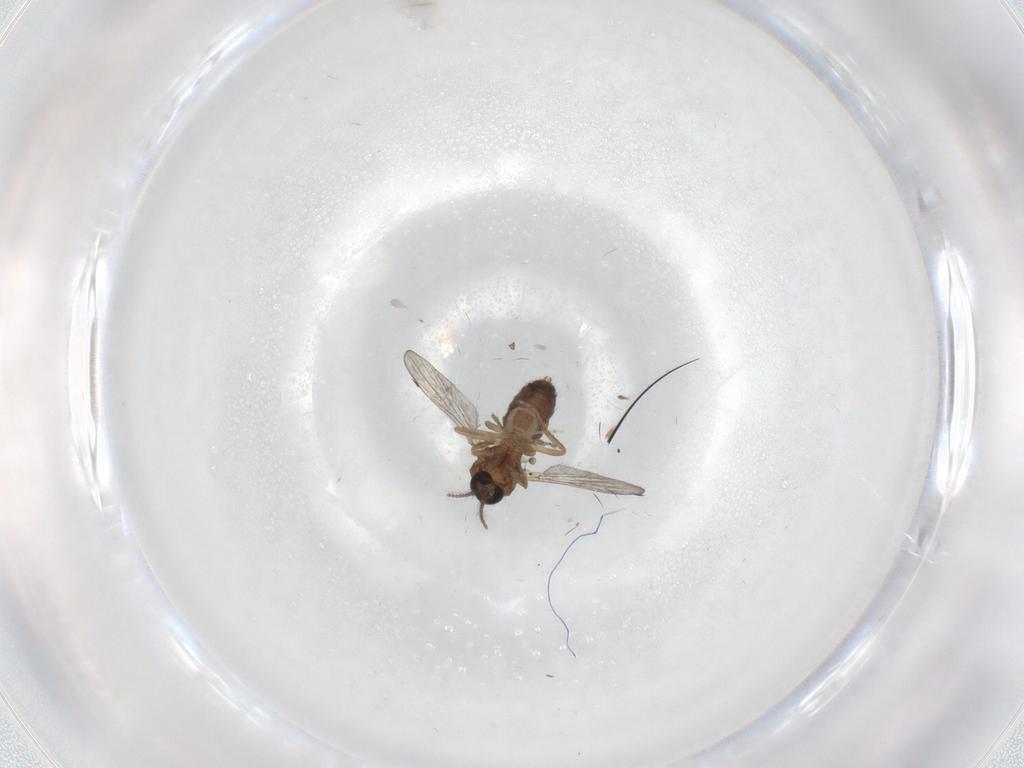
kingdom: Animalia
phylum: Arthropoda
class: Insecta
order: Diptera
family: Ceratopogonidae
